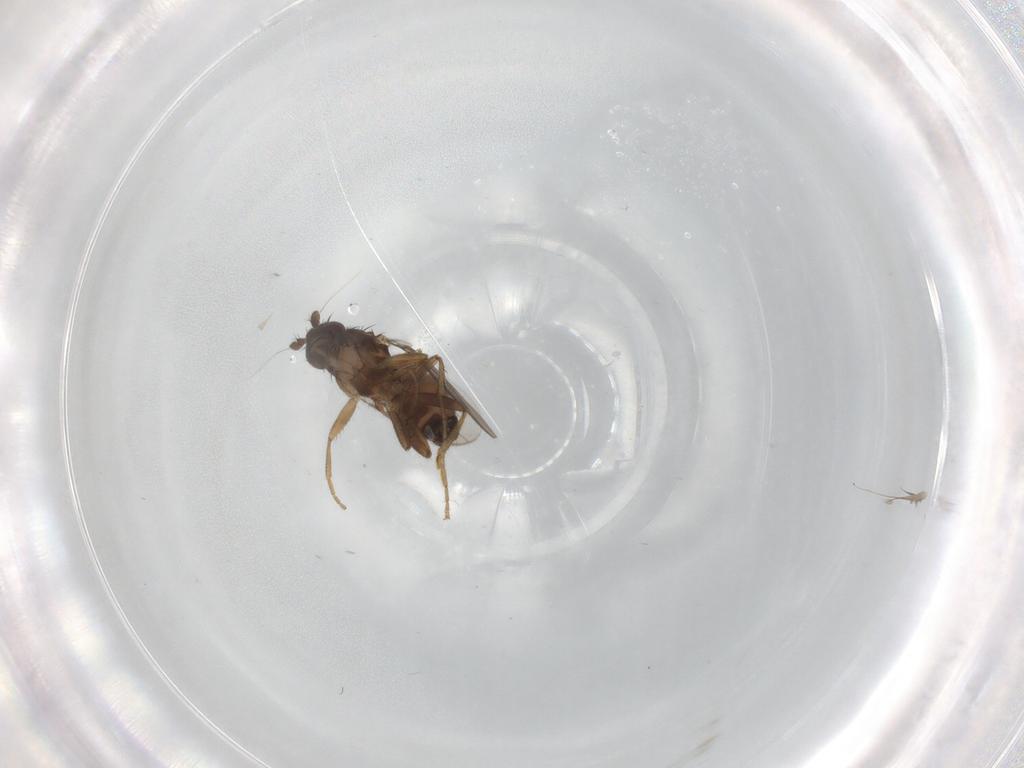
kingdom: Animalia
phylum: Arthropoda
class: Insecta
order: Diptera
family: Sphaeroceridae
